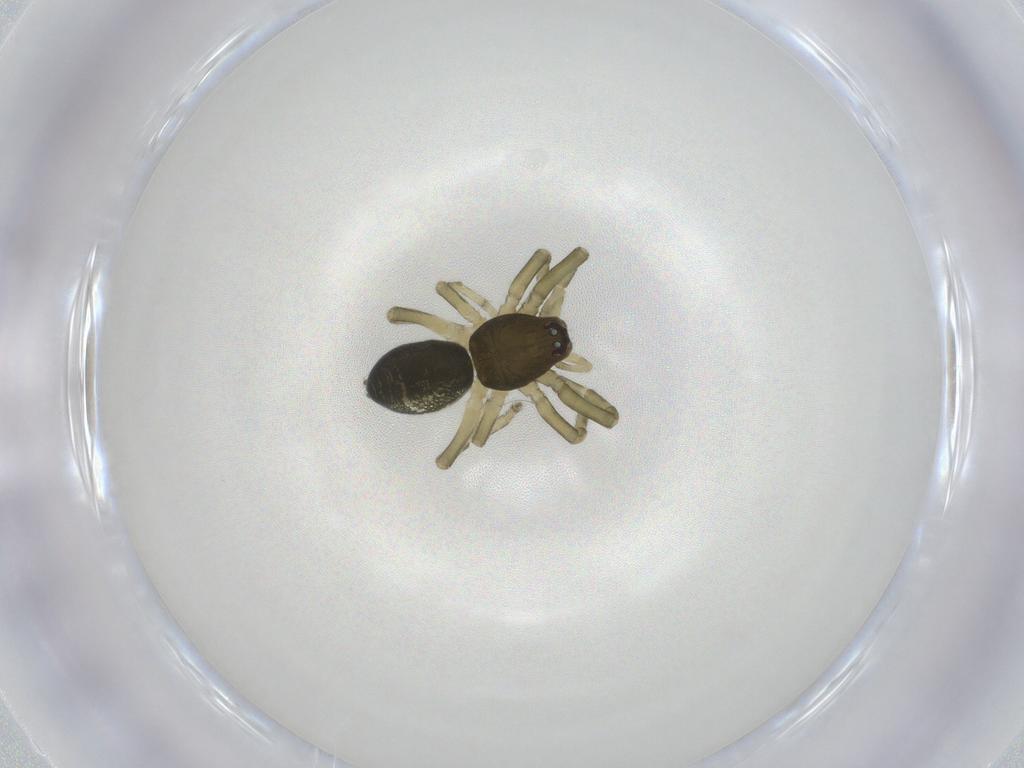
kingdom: Animalia
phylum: Arthropoda
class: Arachnida
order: Araneae
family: Trachelidae
